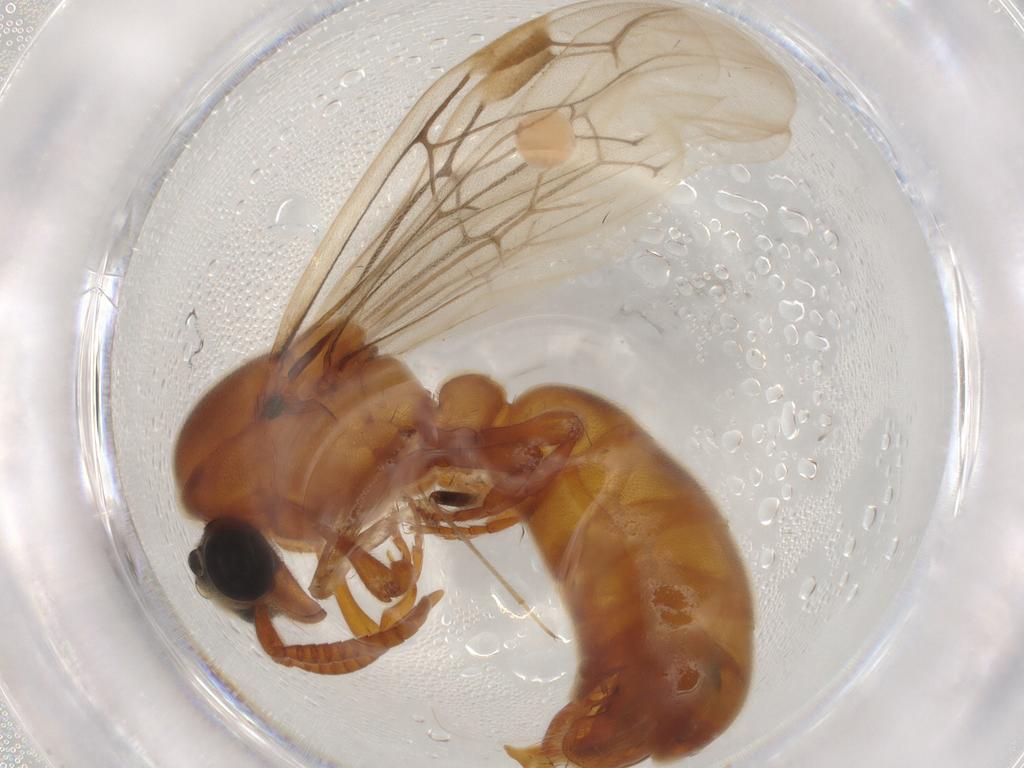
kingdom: Animalia
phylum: Arthropoda
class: Insecta
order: Hymenoptera
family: Formicidae
